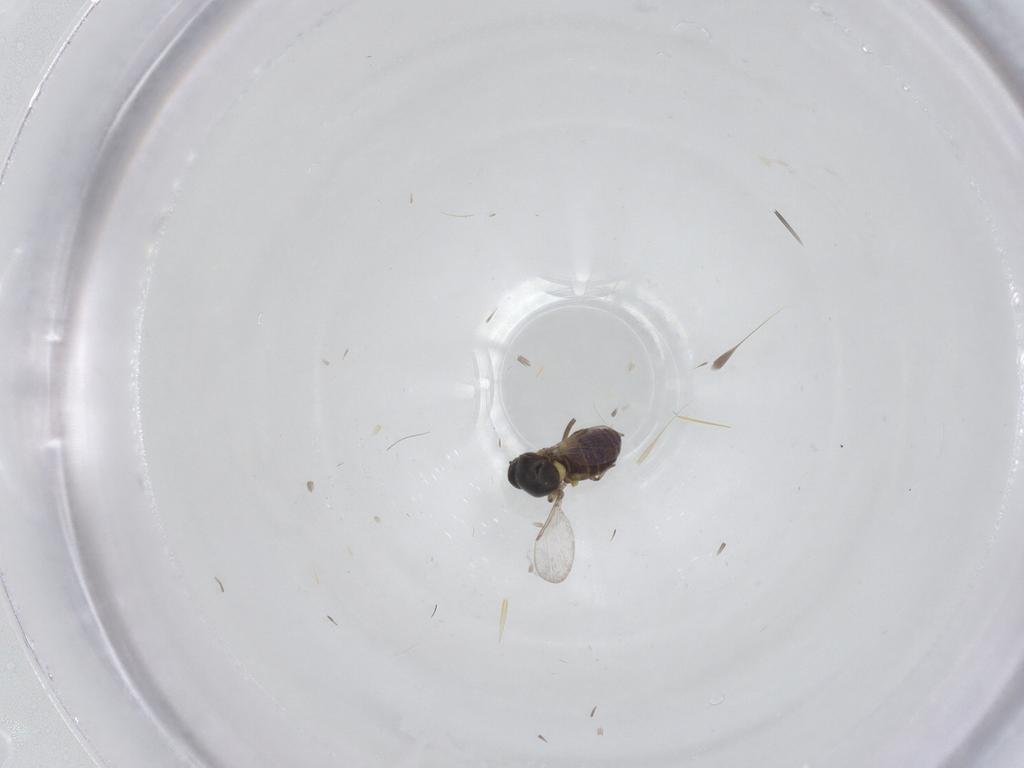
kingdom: Animalia
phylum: Arthropoda
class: Insecta
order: Diptera
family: Ceratopogonidae
